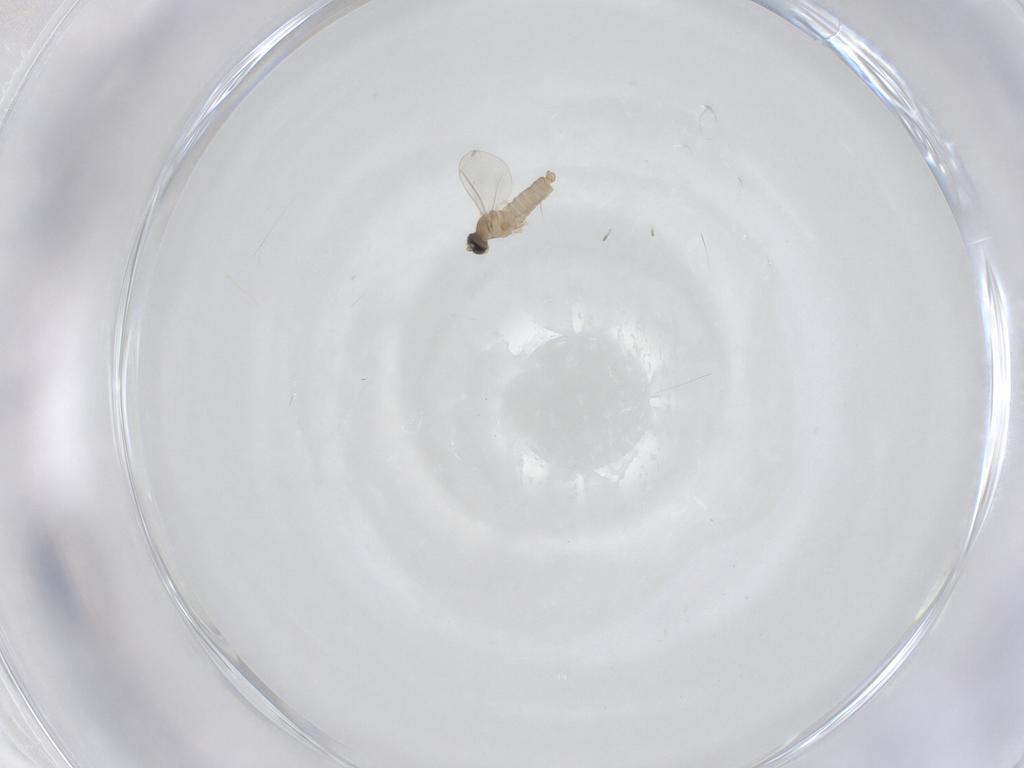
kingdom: Animalia
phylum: Arthropoda
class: Insecta
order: Diptera
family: Cecidomyiidae
